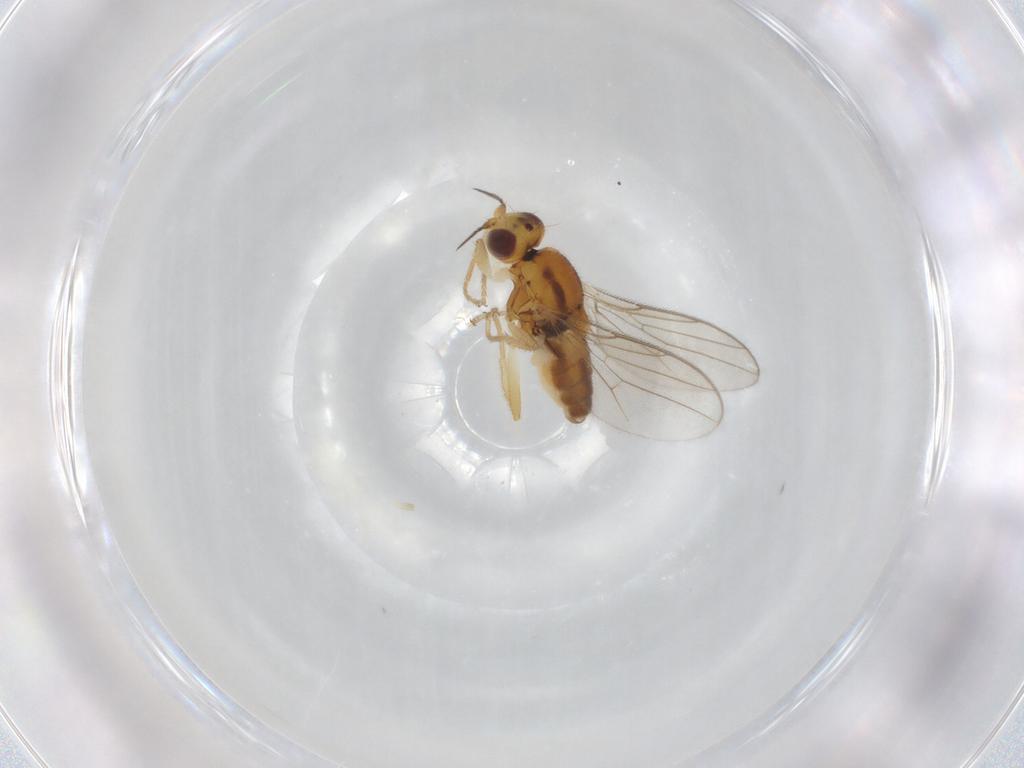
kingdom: Animalia
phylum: Arthropoda
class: Insecta
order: Diptera
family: Chloropidae
